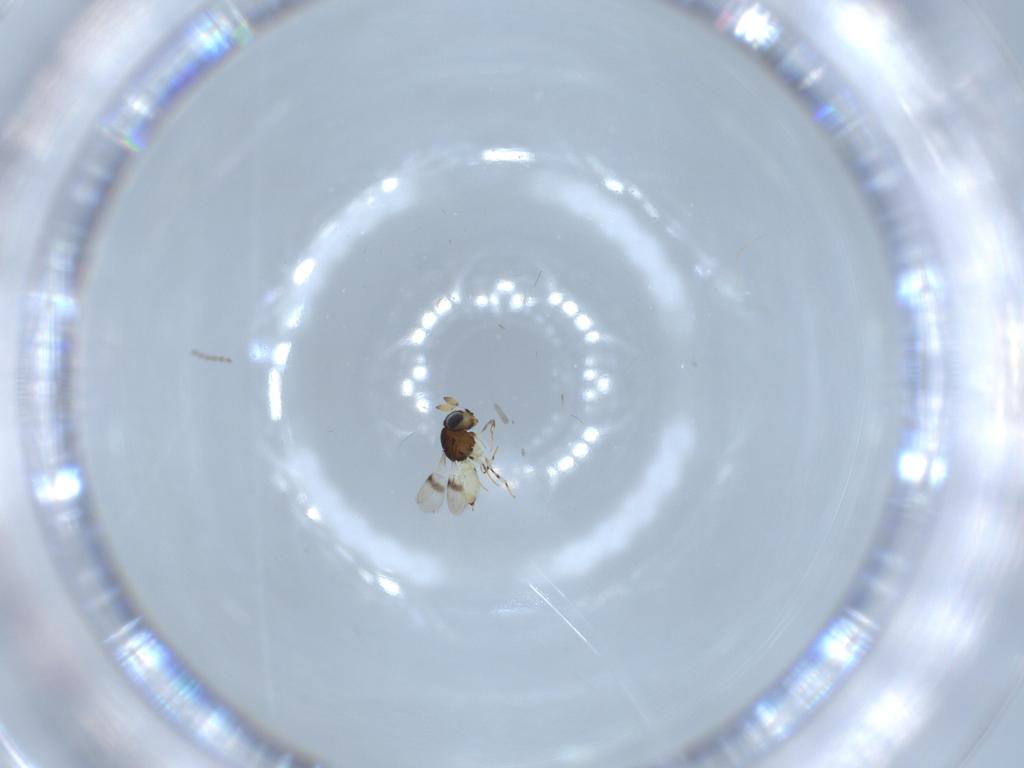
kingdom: Animalia
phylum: Arthropoda
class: Insecta
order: Hymenoptera
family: Scelionidae
